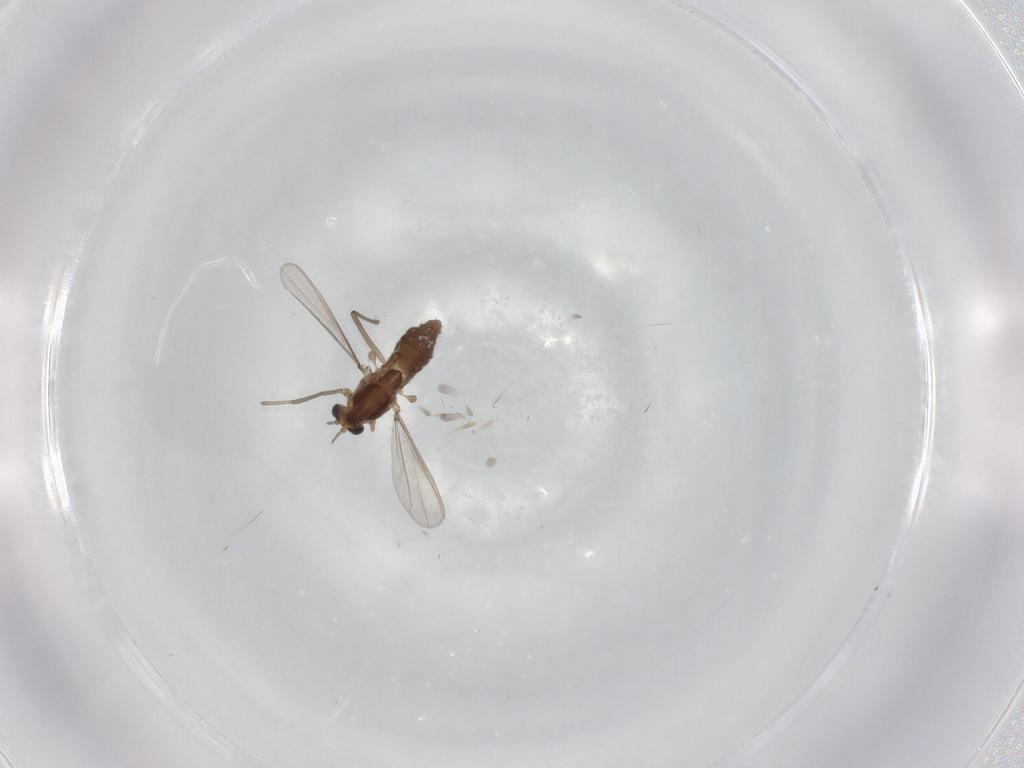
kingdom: Animalia
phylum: Arthropoda
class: Insecta
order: Diptera
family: Chironomidae
